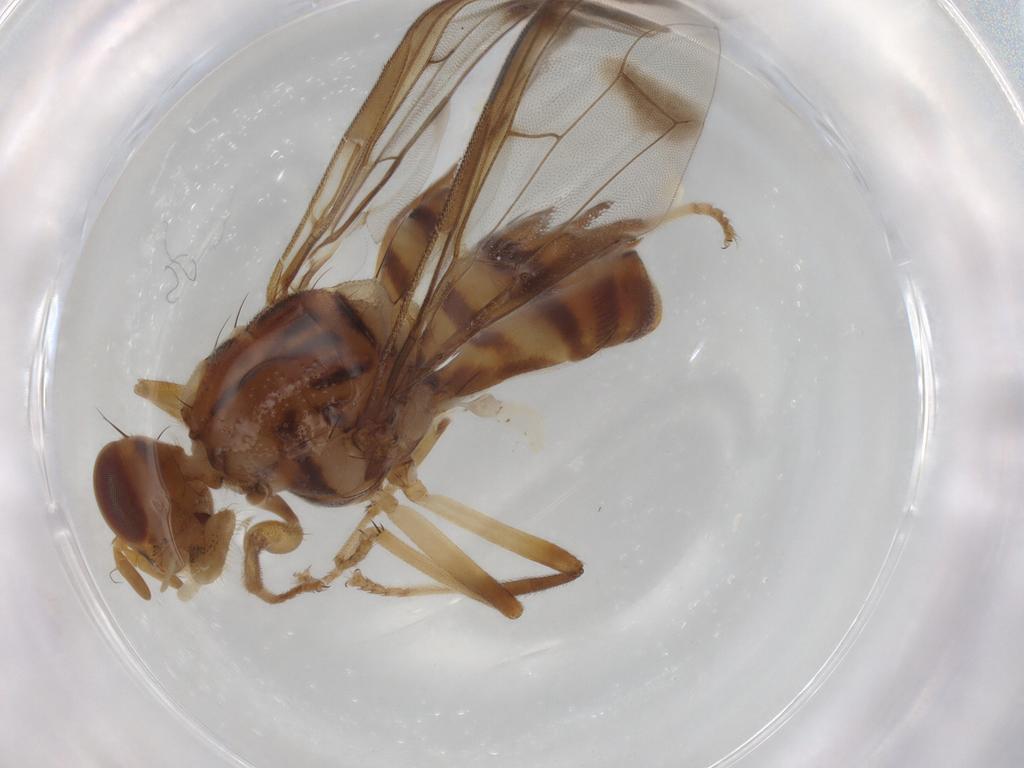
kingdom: Animalia
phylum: Arthropoda
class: Insecta
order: Diptera
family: Tephritidae
